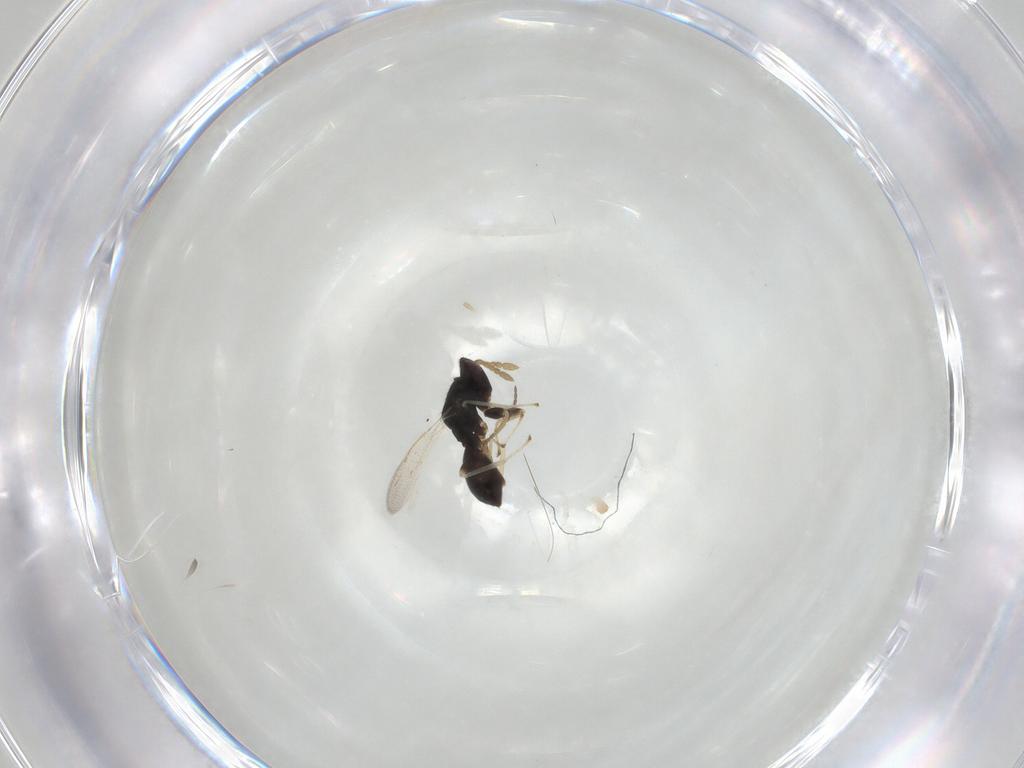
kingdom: Animalia
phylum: Arthropoda
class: Insecta
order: Hymenoptera
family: Eulophidae
